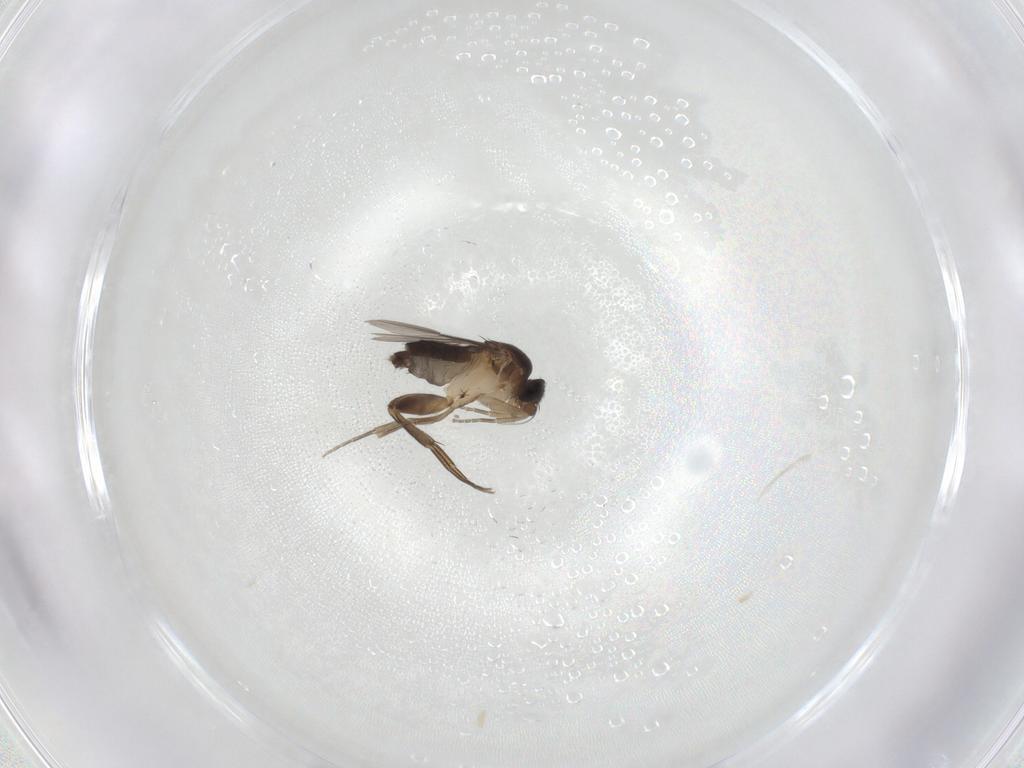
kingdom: Animalia
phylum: Arthropoda
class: Insecta
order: Diptera
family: Phoridae
